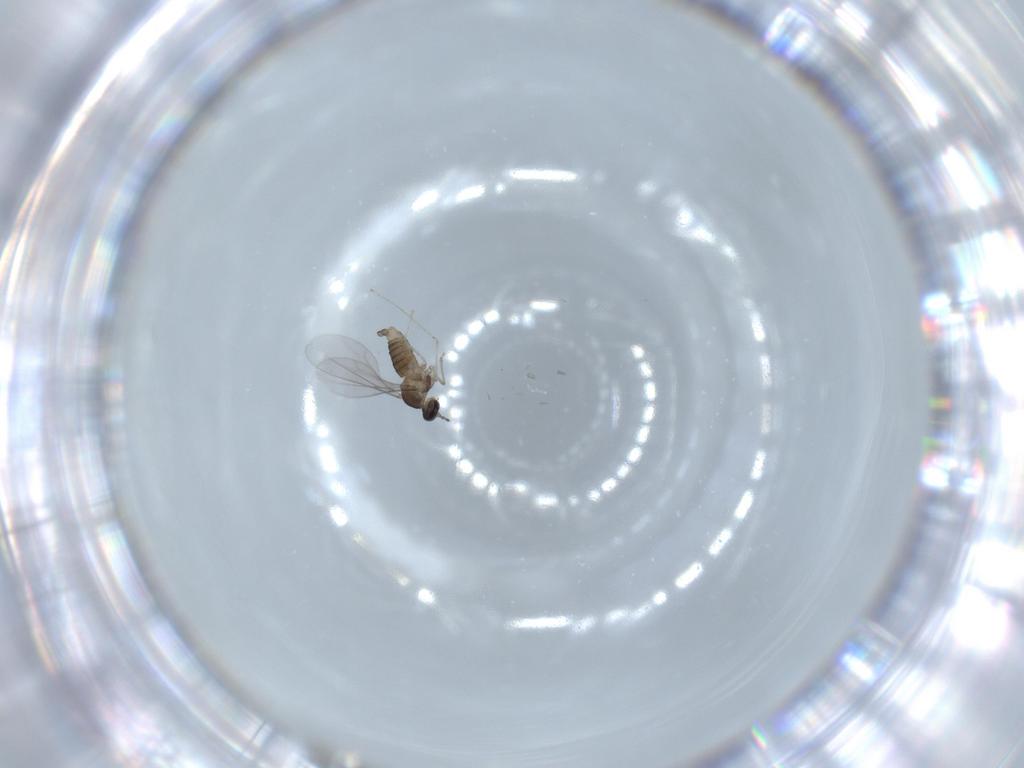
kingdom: Animalia
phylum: Arthropoda
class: Insecta
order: Diptera
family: Cecidomyiidae
